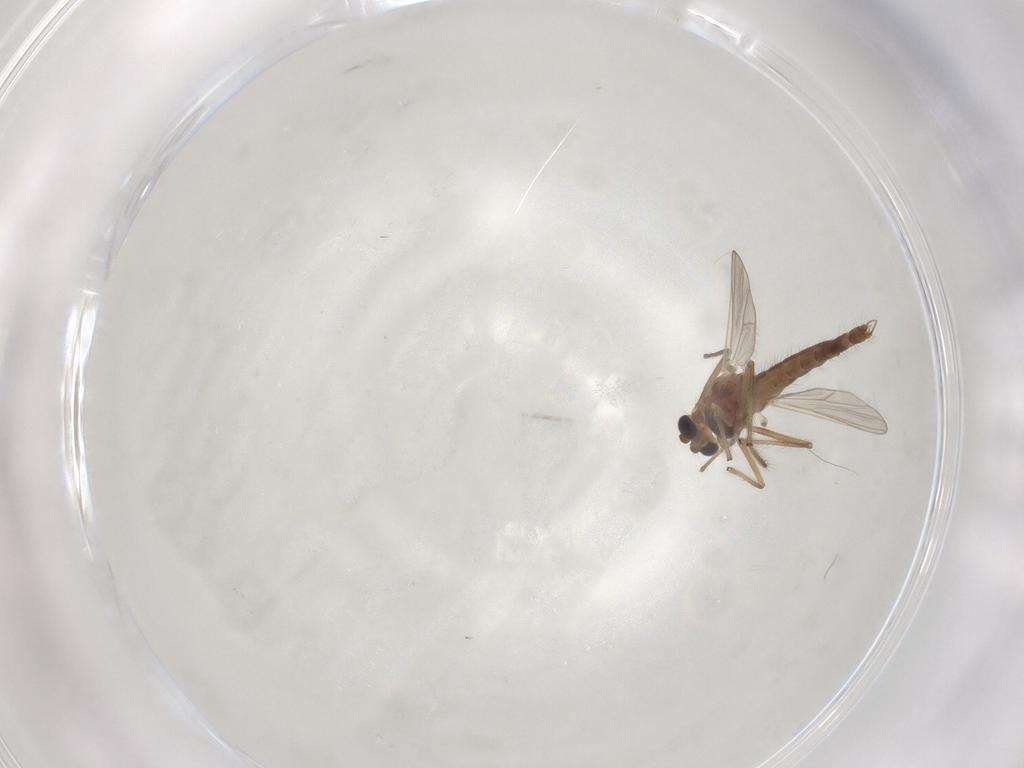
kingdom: Animalia
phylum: Arthropoda
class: Insecta
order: Diptera
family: Chironomidae
